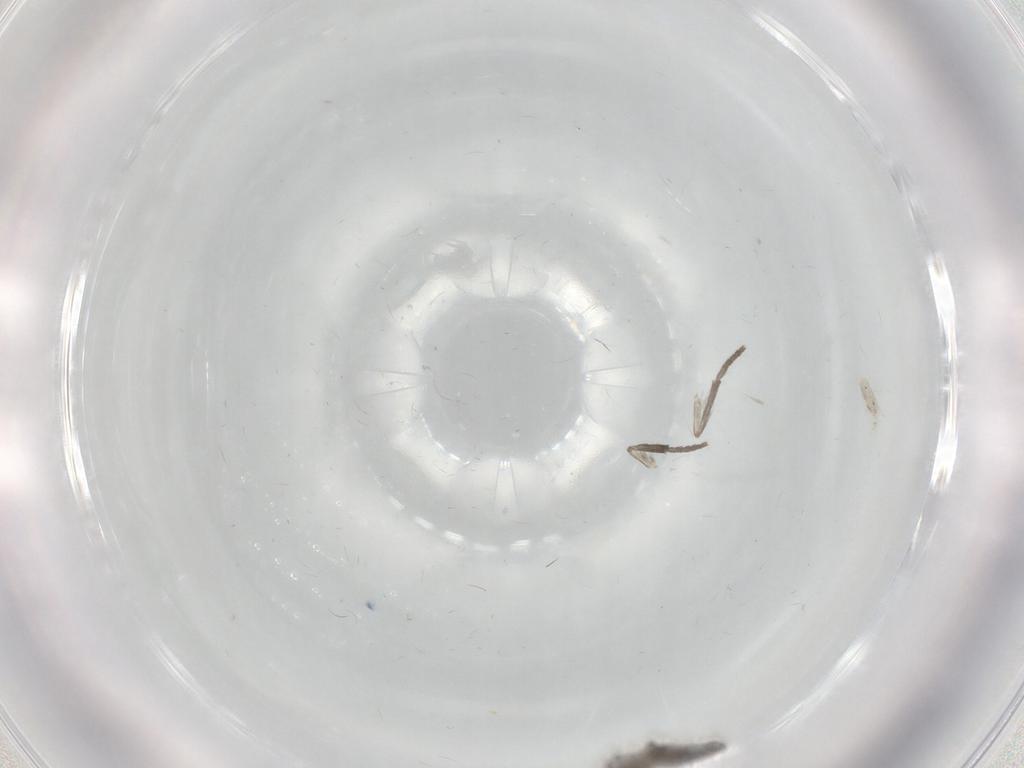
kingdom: Animalia
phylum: Arthropoda
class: Insecta
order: Diptera
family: Psychodidae
